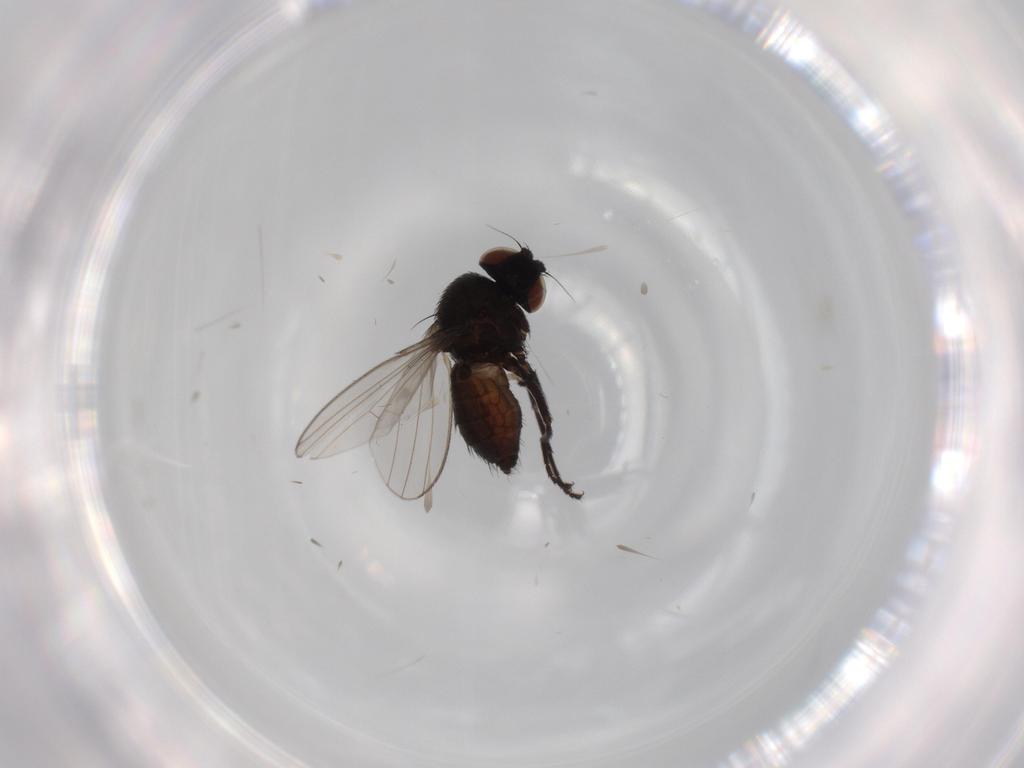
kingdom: Animalia
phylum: Arthropoda
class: Insecta
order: Diptera
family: Milichiidae
